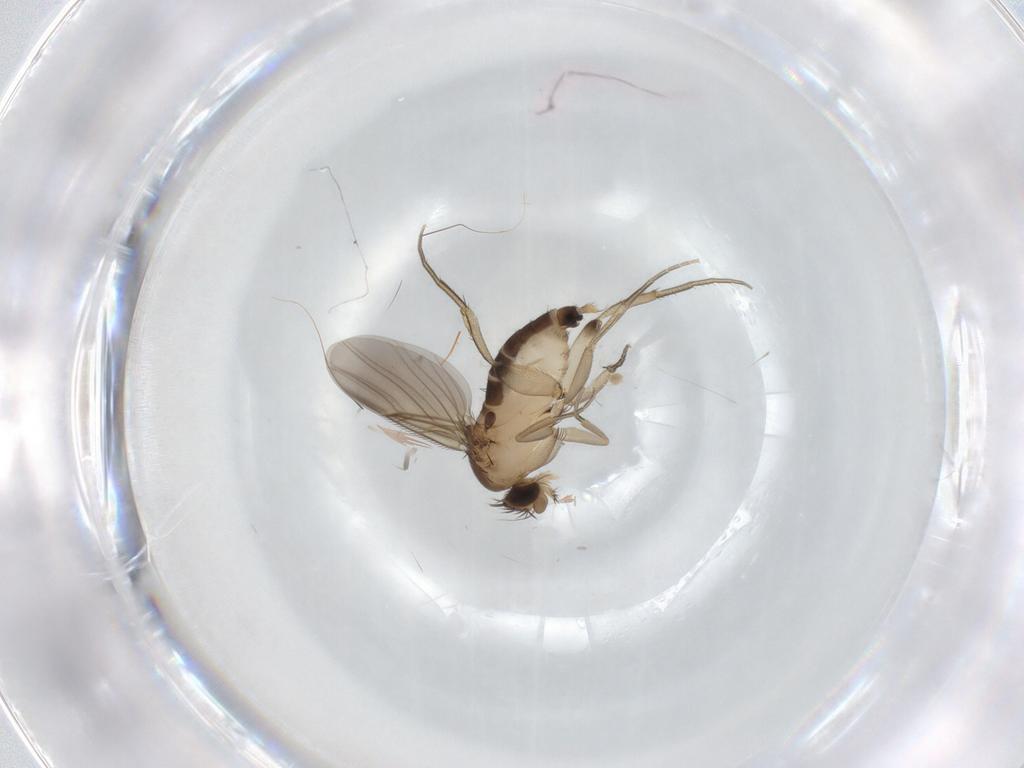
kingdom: Animalia
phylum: Arthropoda
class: Insecta
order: Diptera
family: Phoridae
